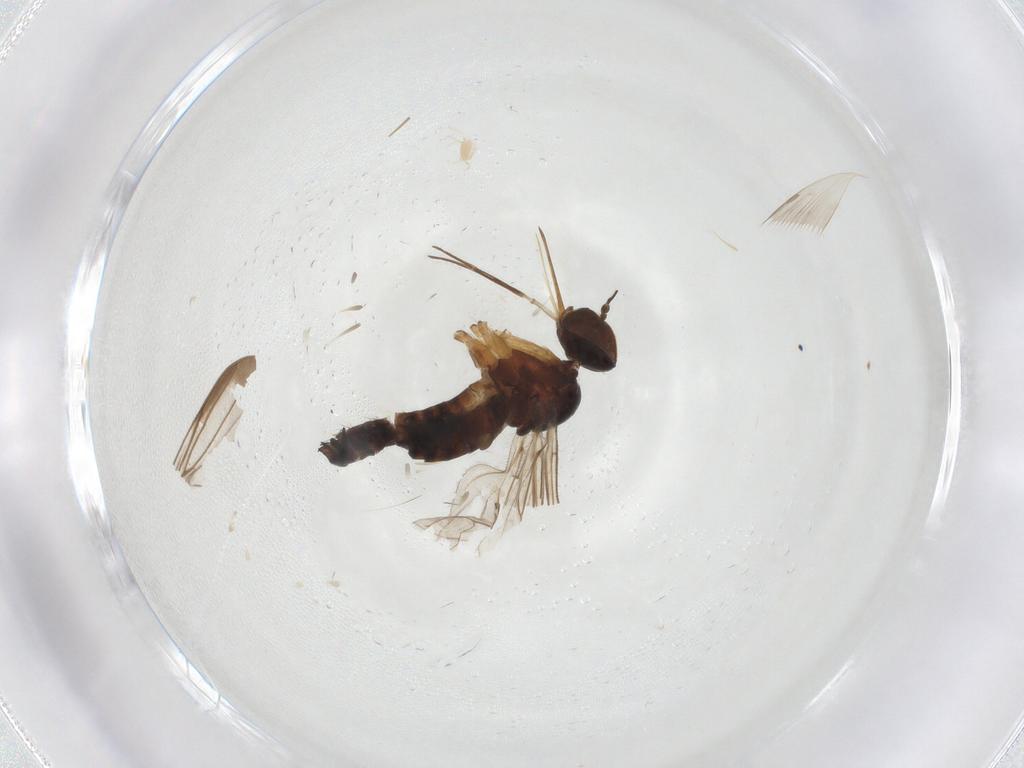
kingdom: Animalia
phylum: Arthropoda
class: Insecta
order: Diptera
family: Dolichopodidae
